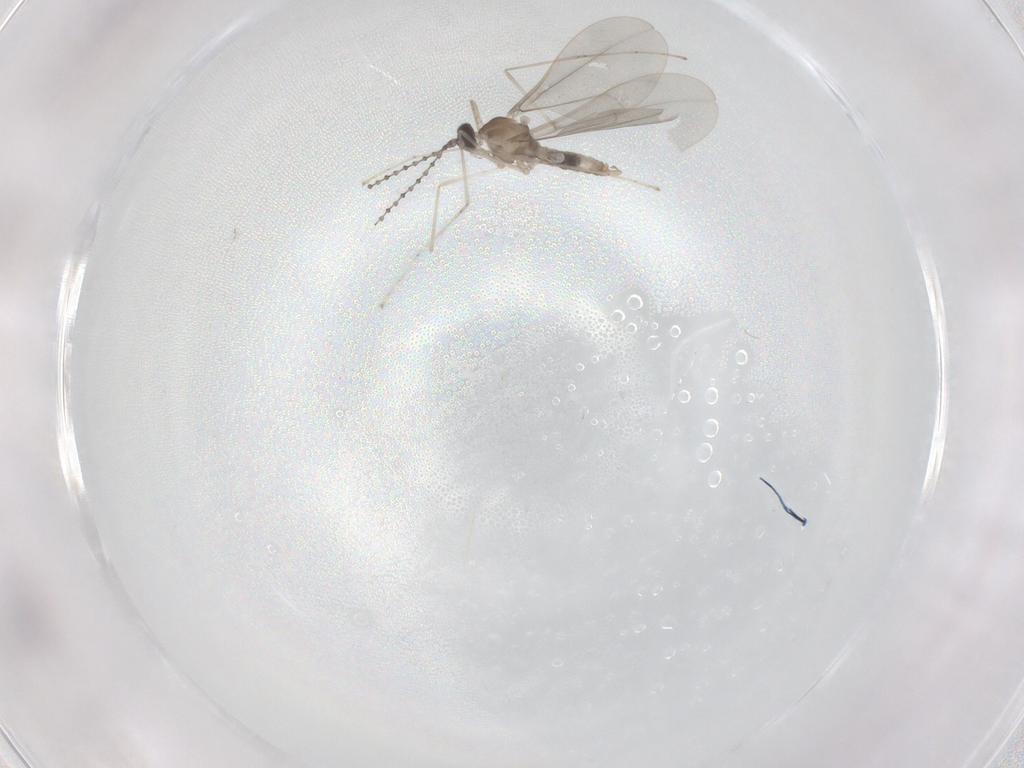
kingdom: Animalia
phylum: Arthropoda
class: Insecta
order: Diptera
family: Cecidomyiidae
